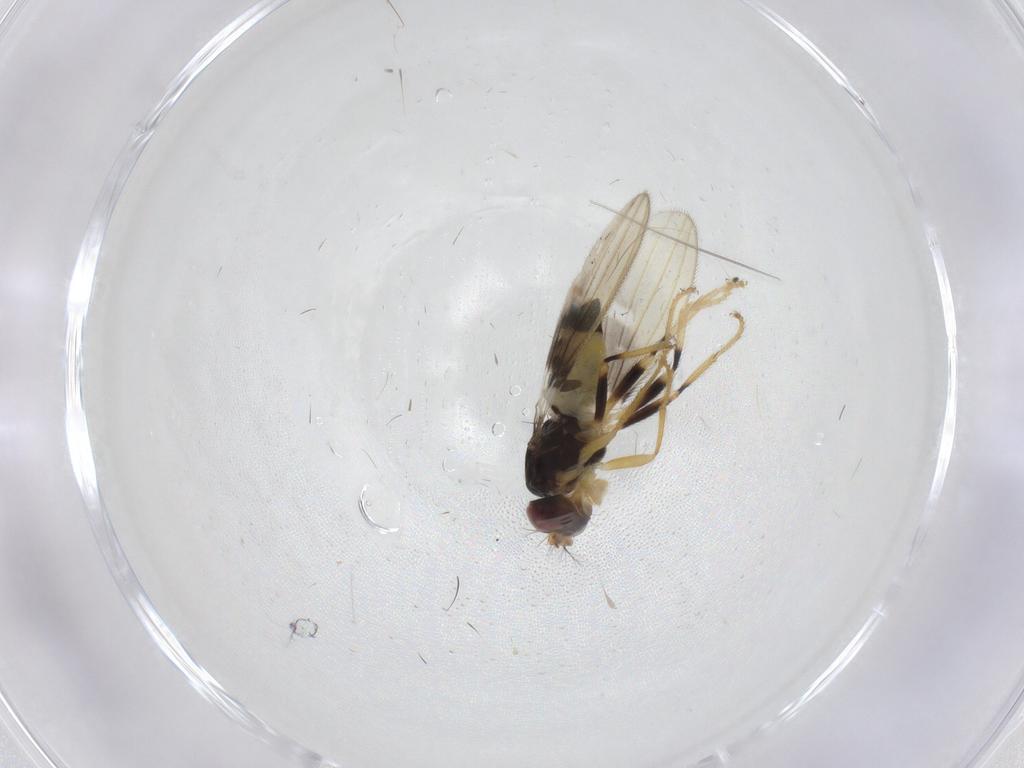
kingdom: Animalia
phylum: Arthropoda
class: Insecta
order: Diptera
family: Periscelididae
